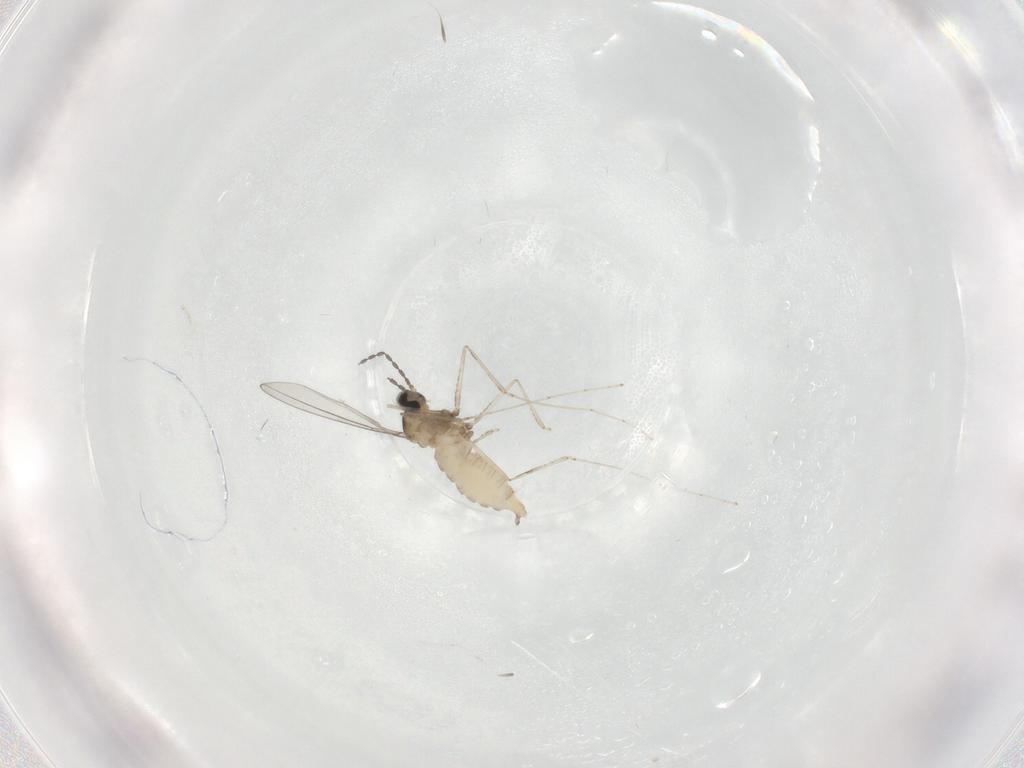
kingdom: Animalia
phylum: Arthropoda
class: Insecta
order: Diptera
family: Cecidomyiidae
